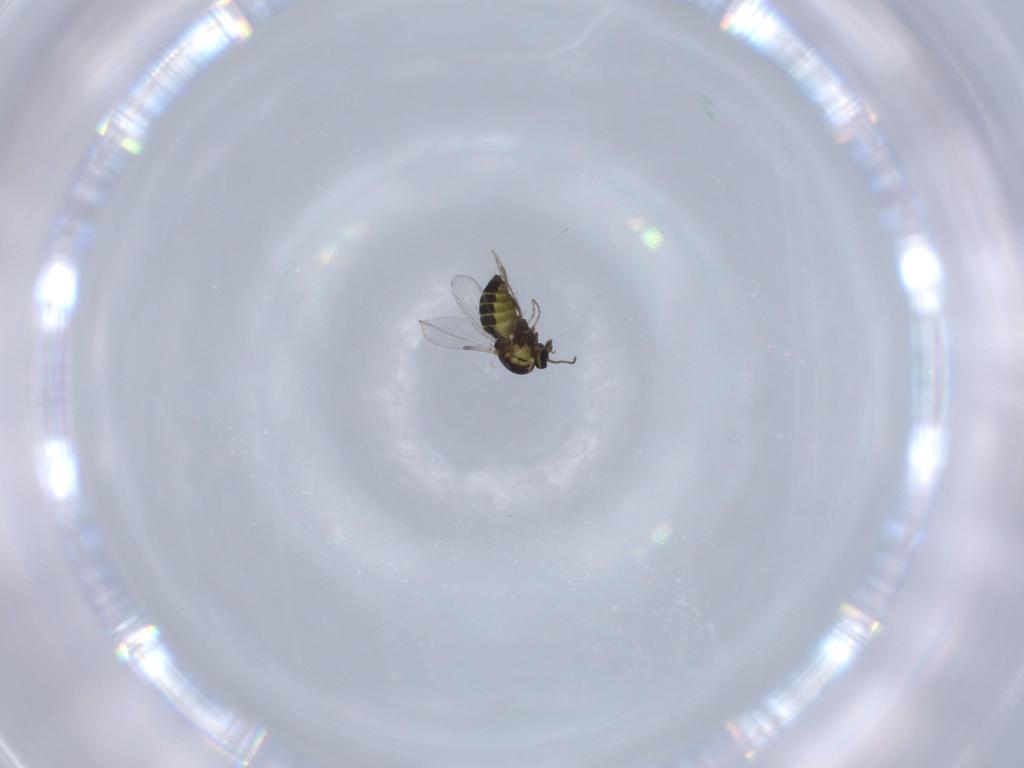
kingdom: Animalia
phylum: Arthropoda
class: Insecta
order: Diptera
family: Ceratopogonidae
